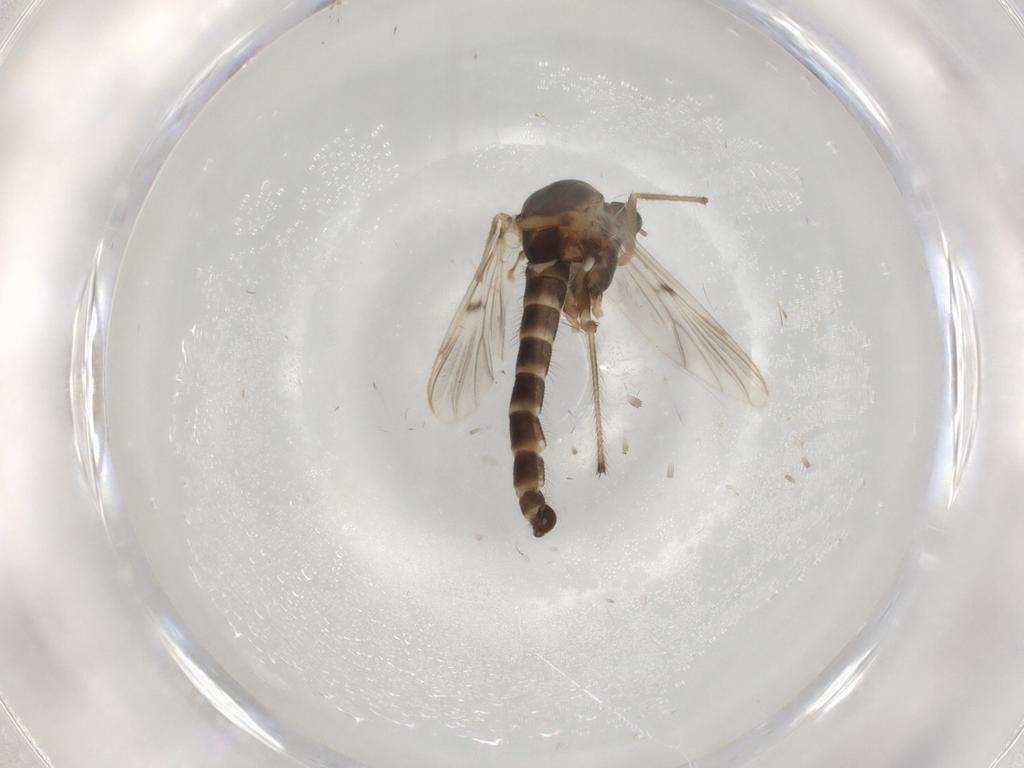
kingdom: Animalia
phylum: Arthropoda
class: Insecta
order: Diptera
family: Chironomidae
